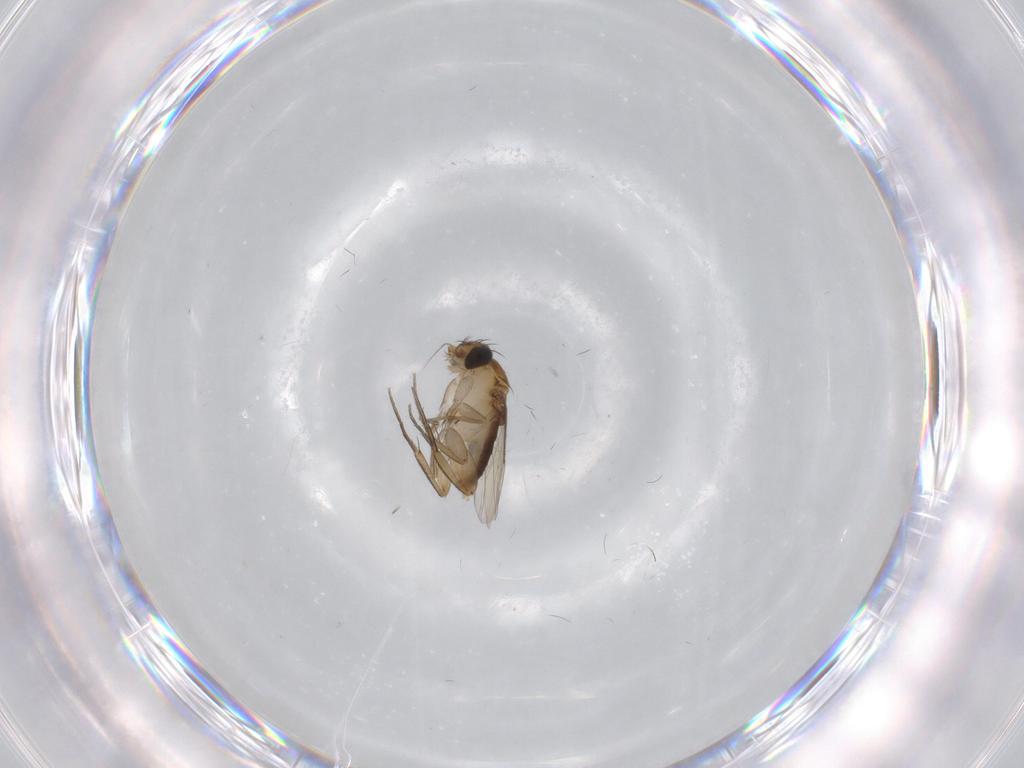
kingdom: Animalia
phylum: Arthropoda
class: Insecta
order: Diptera
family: Phoridae
